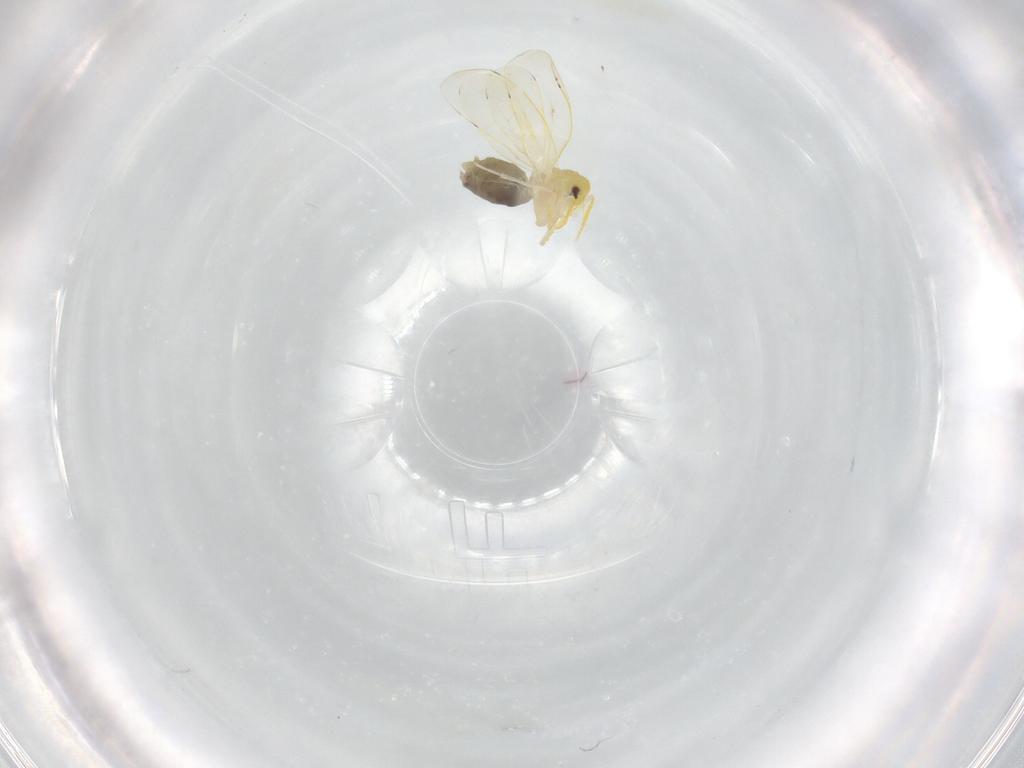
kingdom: Animalia
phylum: Arthropoda
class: Insecta
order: Hemiptera
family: Aleyrodidae
